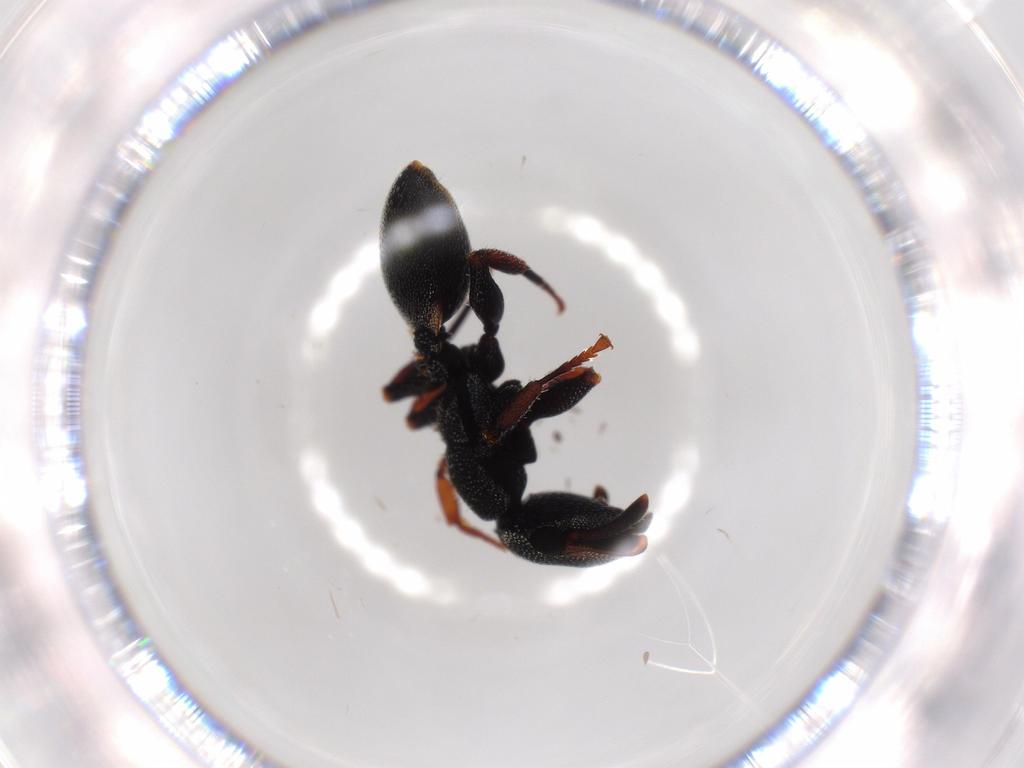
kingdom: Animalia
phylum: Arthropoda
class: Insecta
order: Hymenoptera
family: Formicidae
